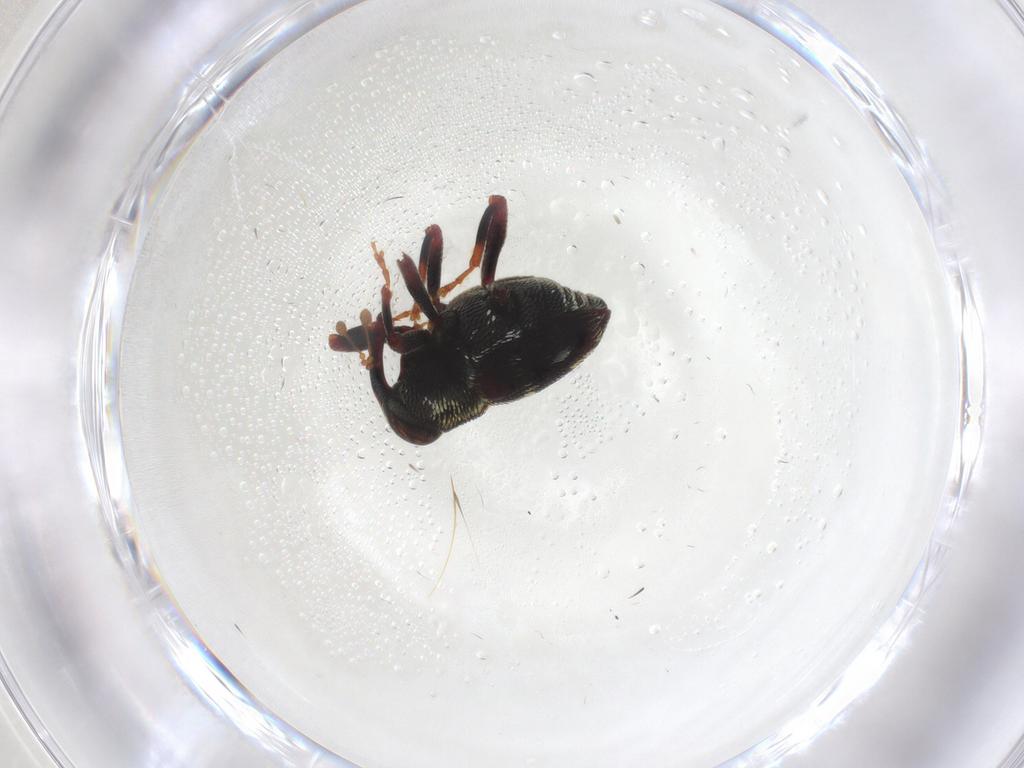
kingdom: Animalia
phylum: Arthropoda
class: Insecta
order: Coleoptera
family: Curculionidae
